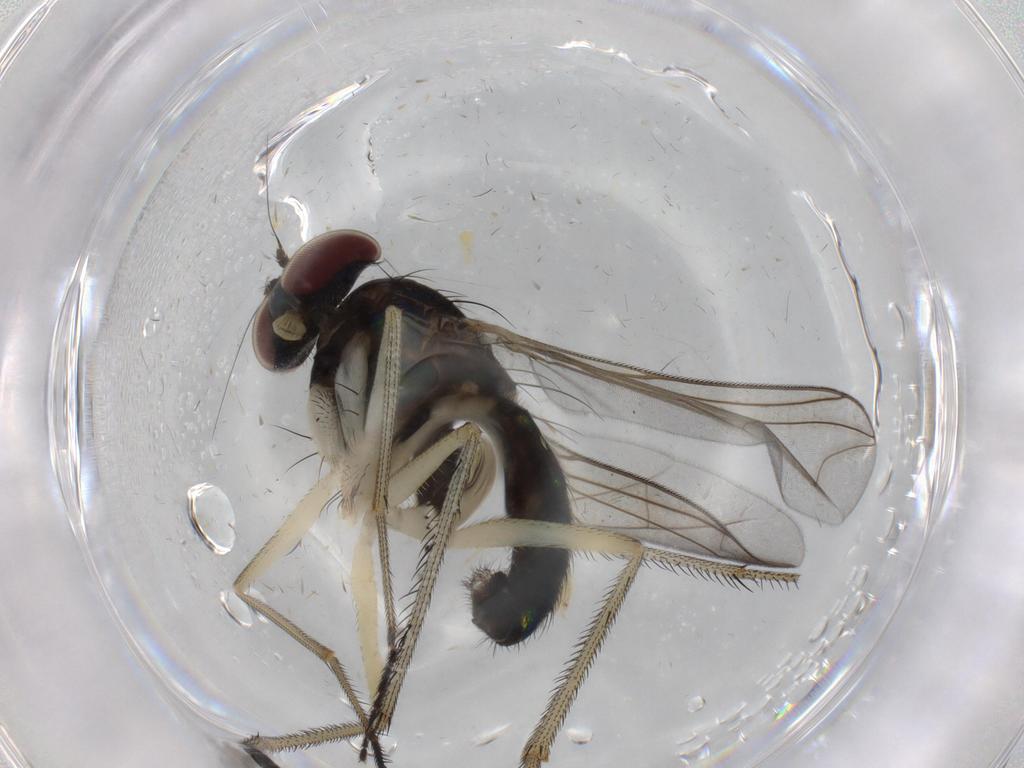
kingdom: Animalia
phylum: Arthropoda
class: Insecta
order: Diptera
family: Dolichopodidae
